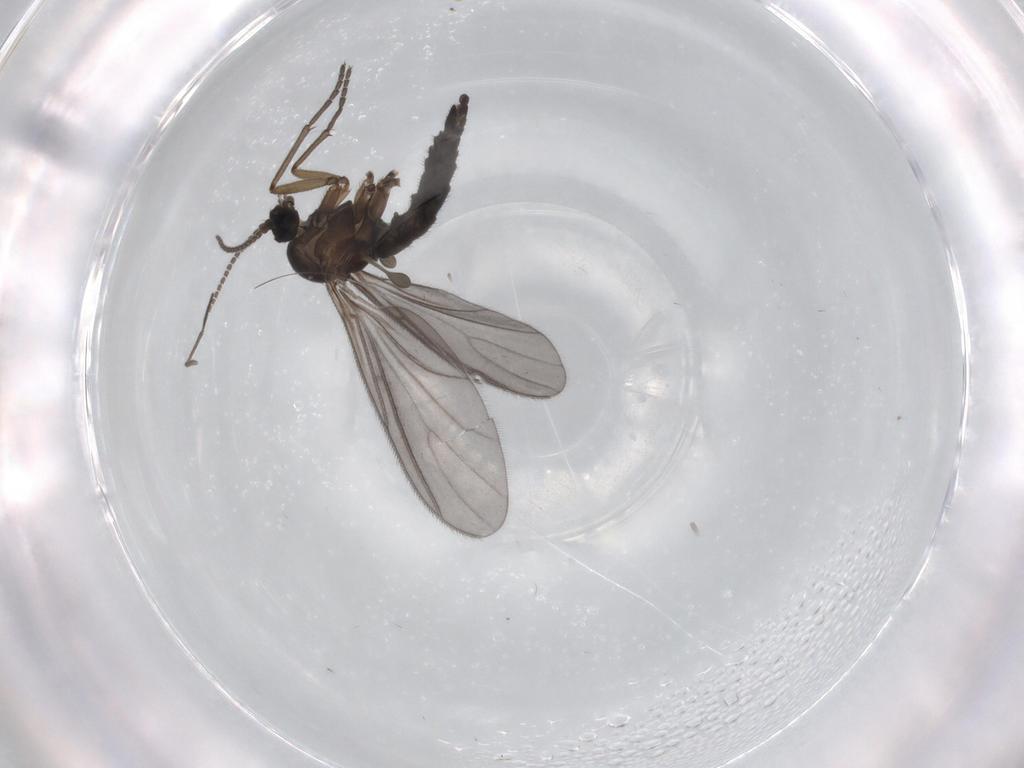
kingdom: Animalia
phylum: Arthropoda
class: Insecta
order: Diptera
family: Sciaridae
